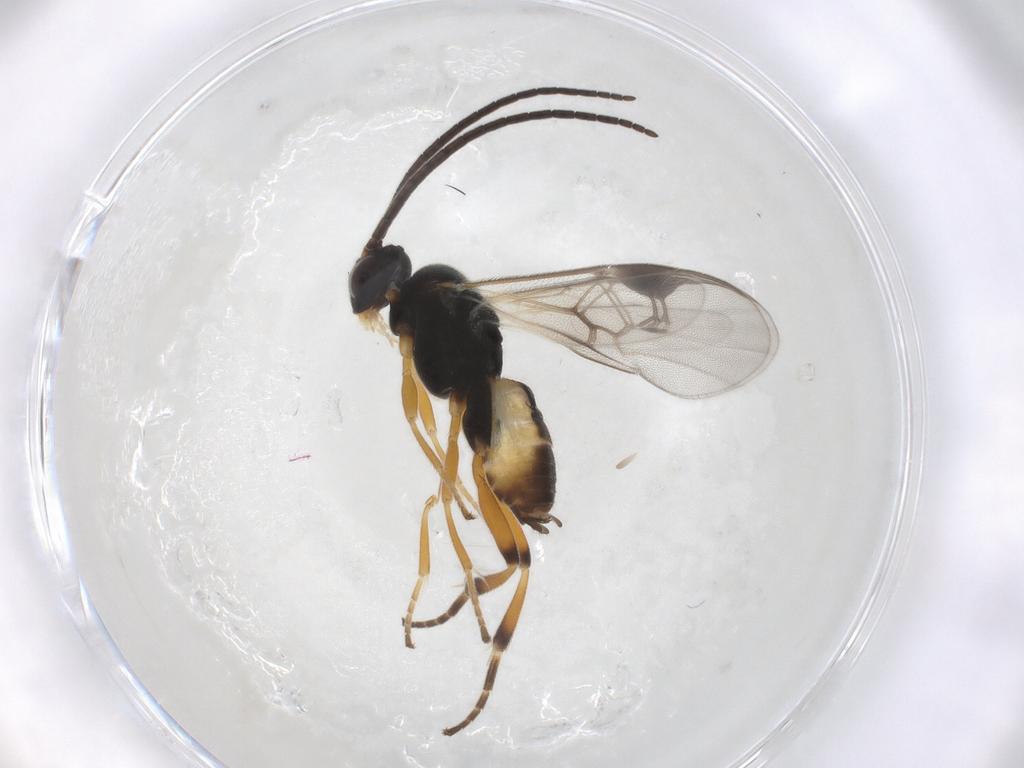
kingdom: Animalia
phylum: Arthropoda
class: Insecta
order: Hymenoptera
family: Braconidae
